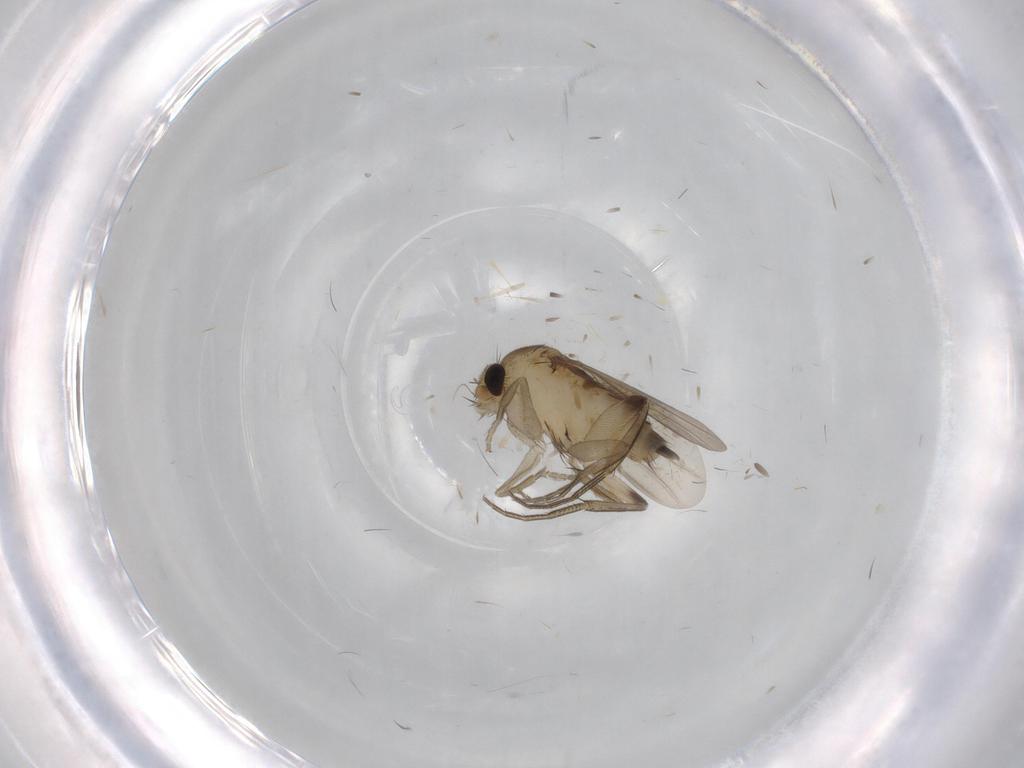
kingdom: Animalia
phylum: Arthropoda
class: Insecta
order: Diptera
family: Phoridae
